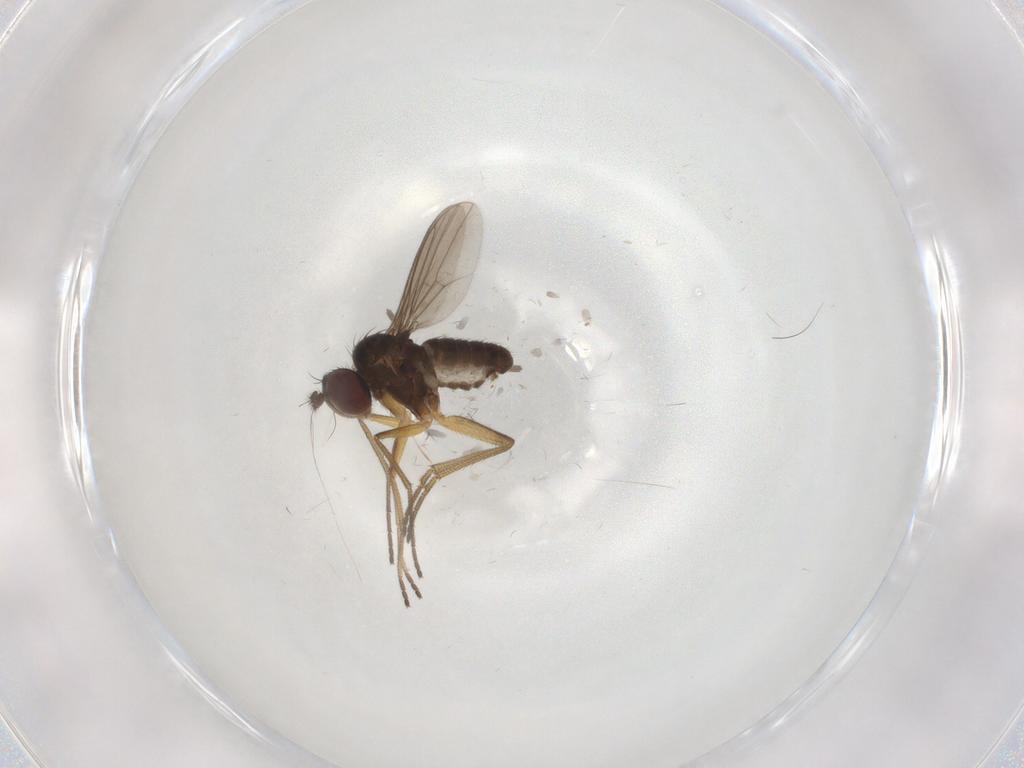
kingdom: Animalia
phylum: Arthropoda
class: Insecta
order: Diptera
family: Dolichopodidae
